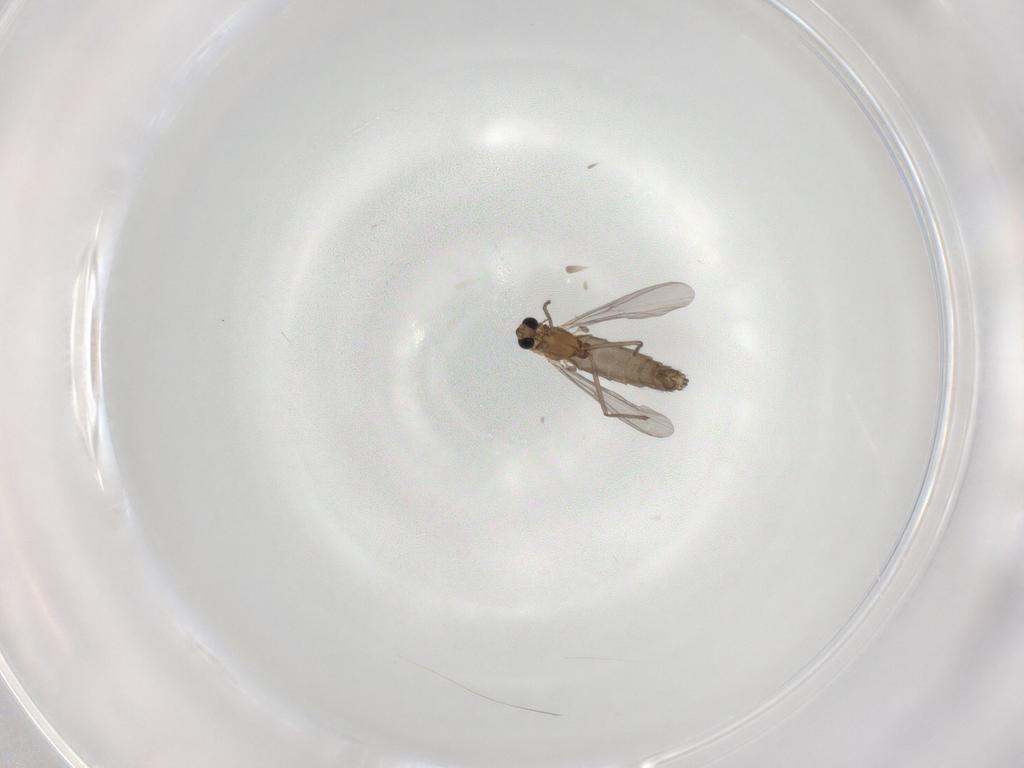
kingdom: Animalia
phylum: Arthropoda
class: Insecta
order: Diptera
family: Chironomidae
